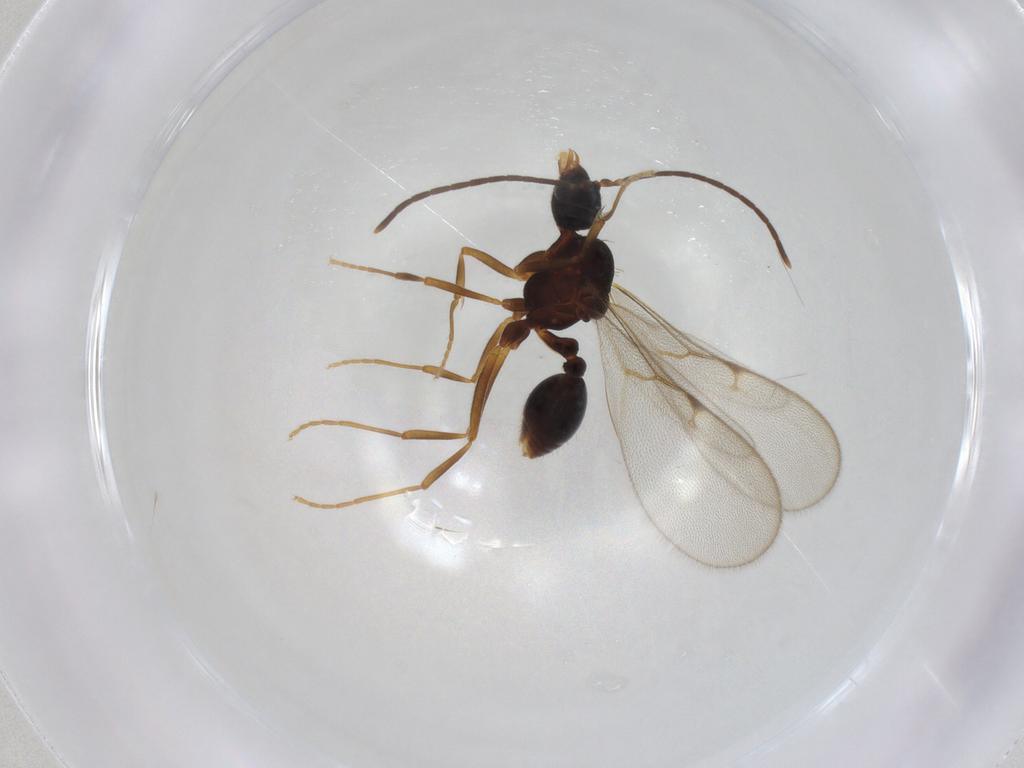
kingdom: Animalia
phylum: Arthropoda
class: Insecta
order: Hymenoptera
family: Formicidae
